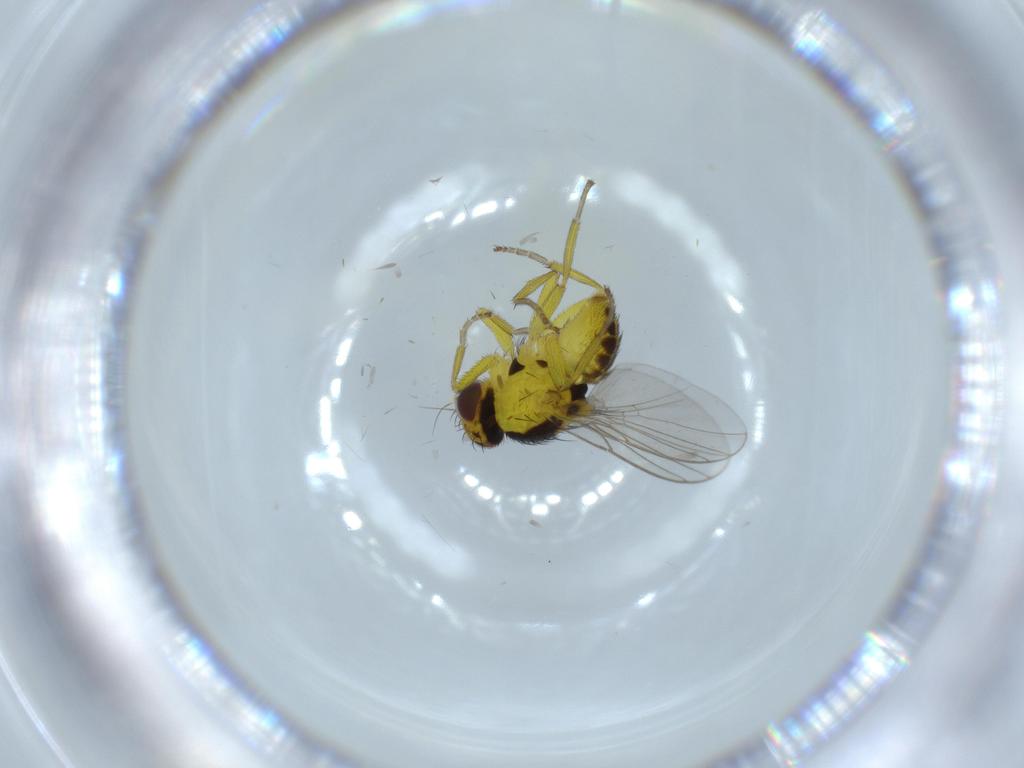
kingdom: Animalia
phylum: Arthropoda
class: Insecta
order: Diptera
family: Agromyzidae
